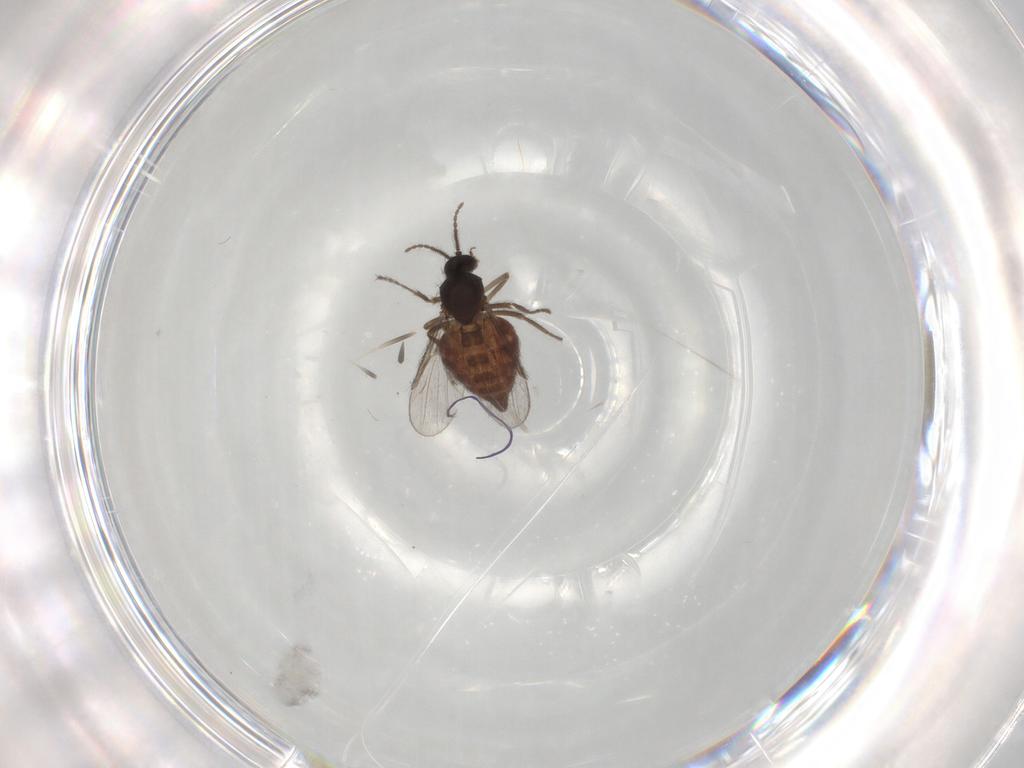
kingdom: Animalia
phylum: Arthropoda
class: Insecta
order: Diptera
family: Ceratopogonidae
